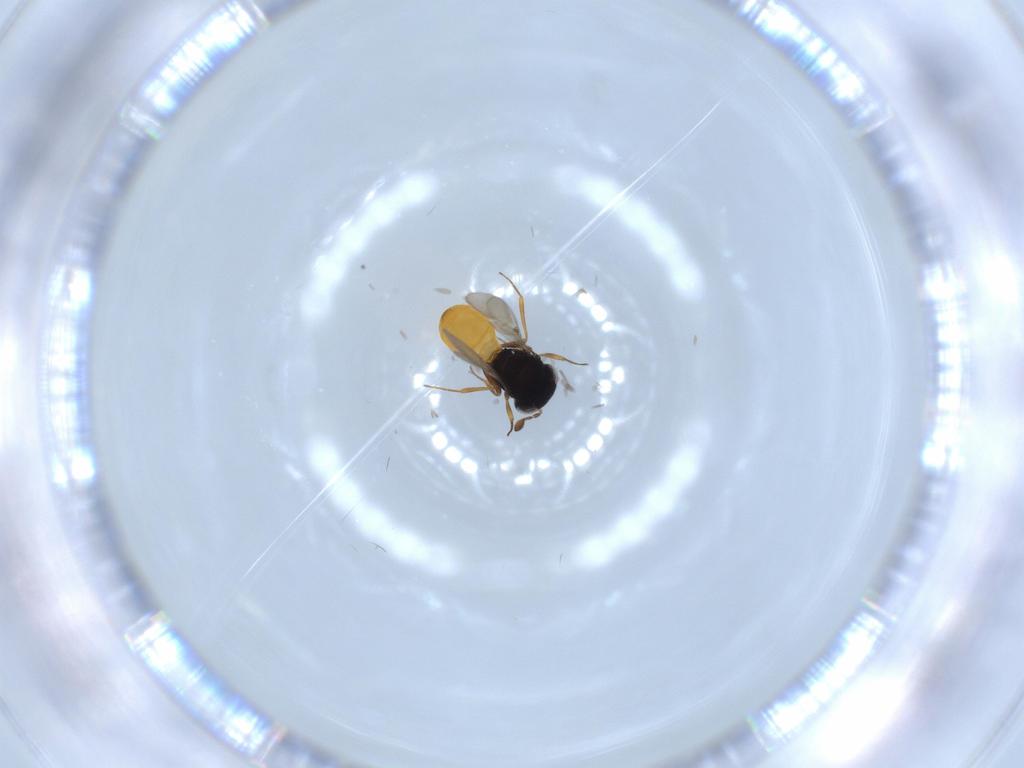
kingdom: Animalia
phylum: Arthropoda
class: Insecta
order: Hymenoptera
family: Scelionidae
